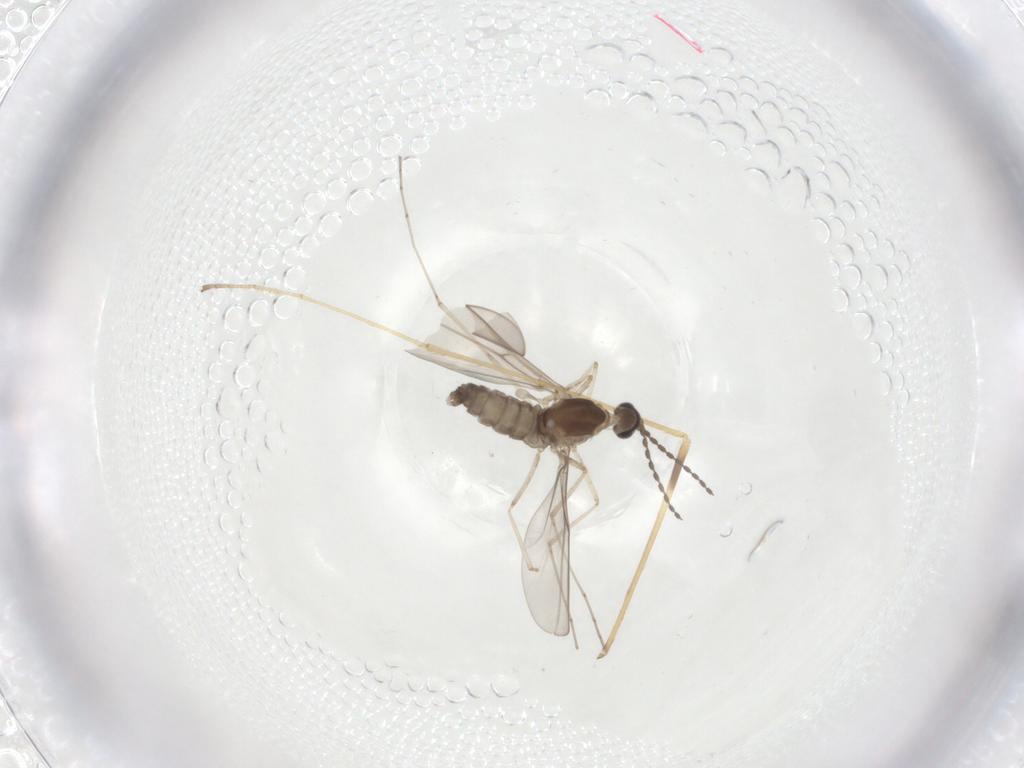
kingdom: Animalia
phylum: Arthropoda
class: Insecta
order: Diptera
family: Cecidomyiidae
